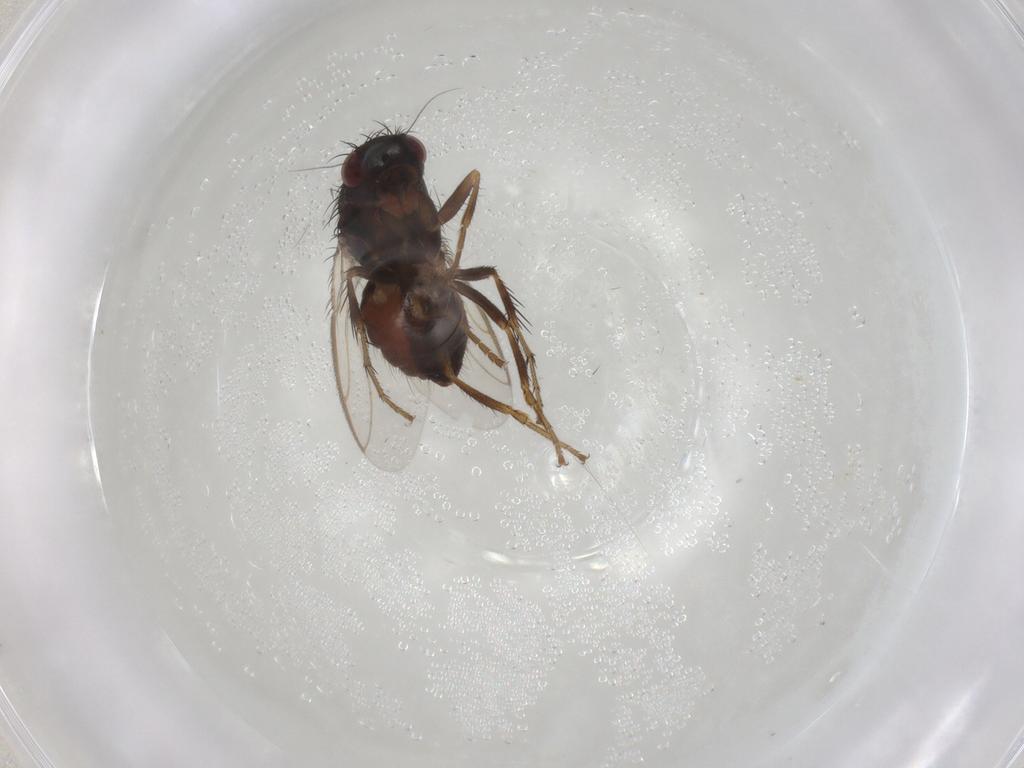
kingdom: Animalia
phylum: Arthropoda
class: Insecta
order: Diptera
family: Sphaeroceridae
